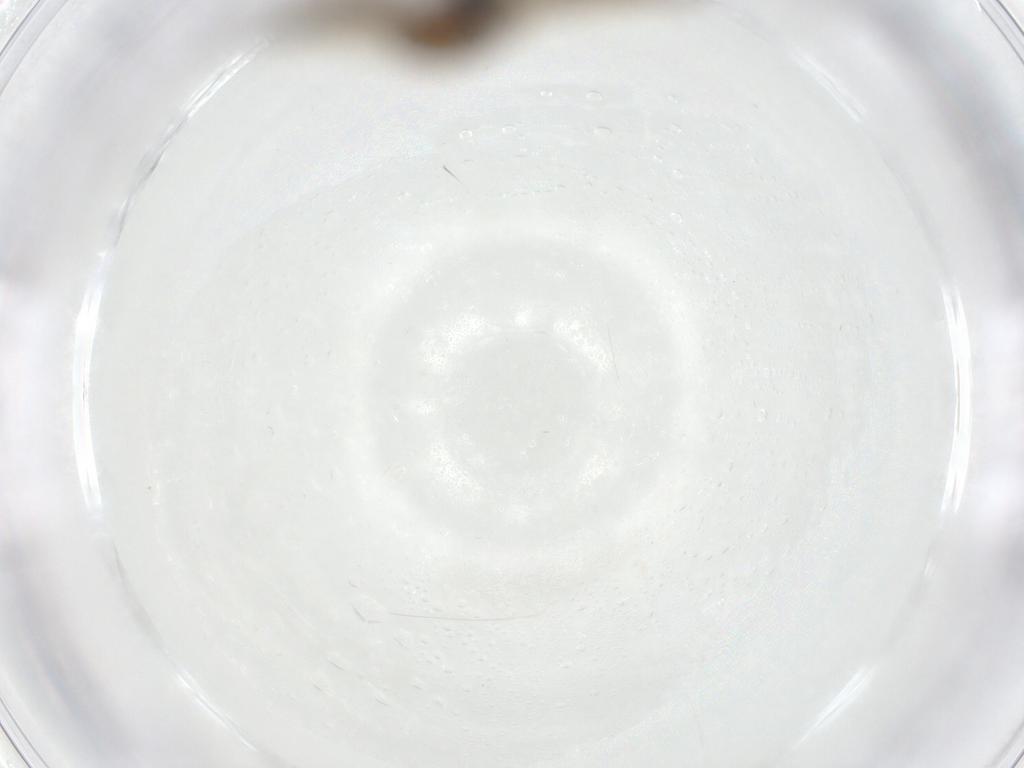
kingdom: Animalia
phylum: Arthropoda
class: Insecta
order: Diptera
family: Sciaridae
